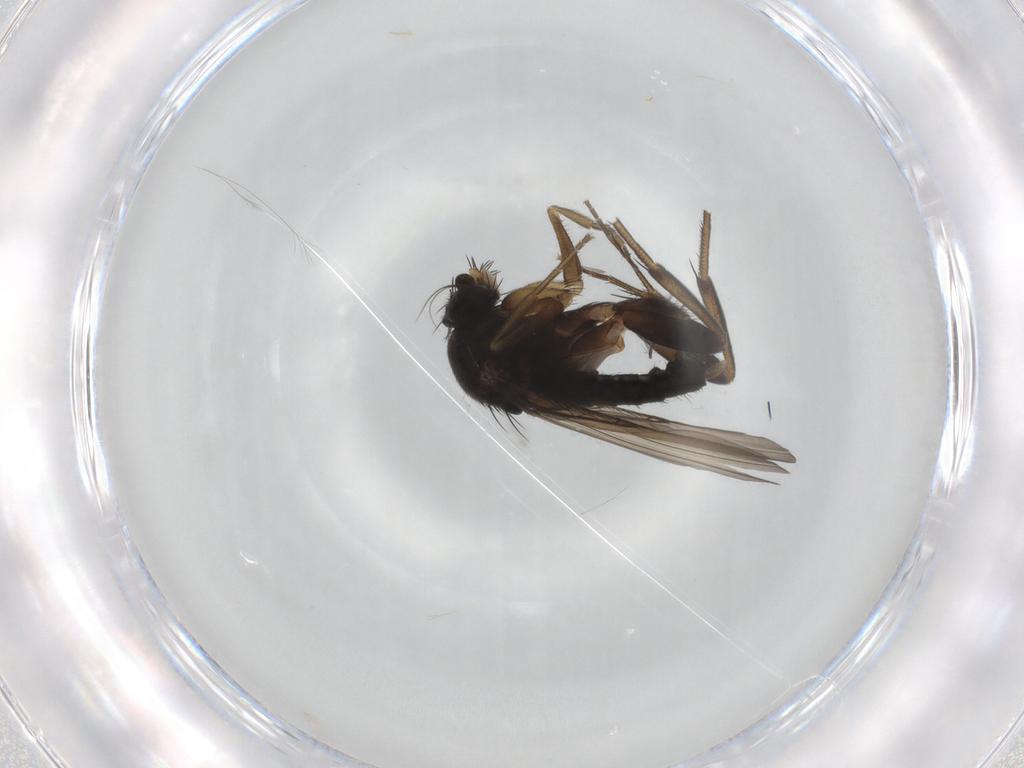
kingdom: Animalia
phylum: Arthropoda
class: Insecta
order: Diptera
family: Phoridae
